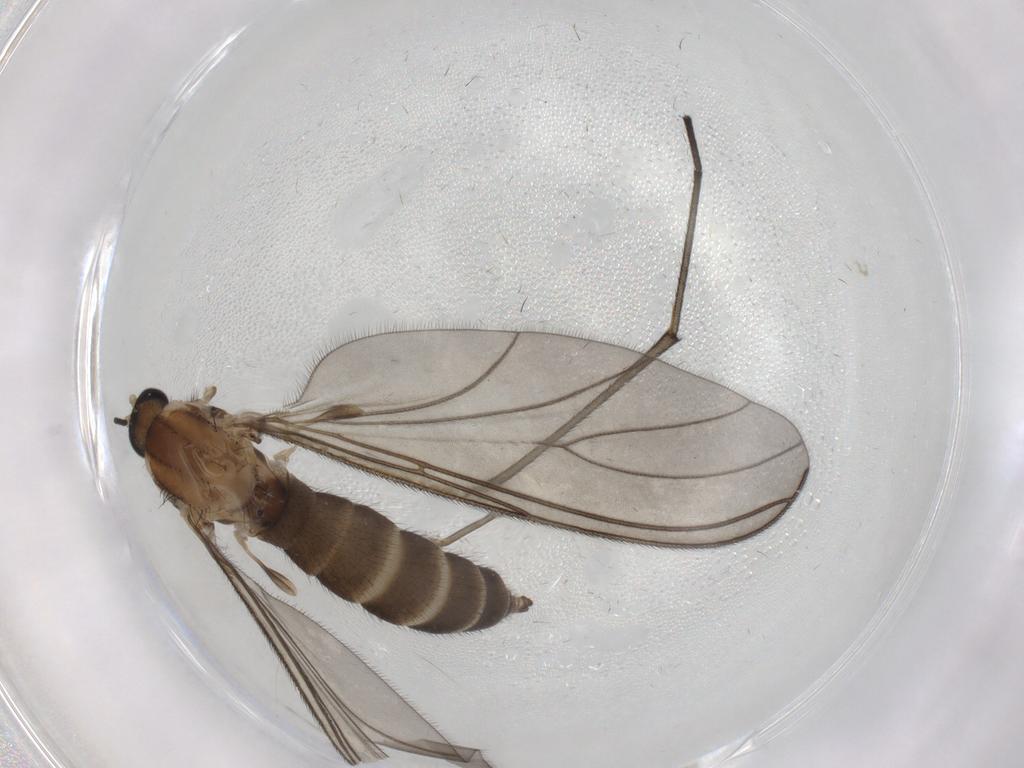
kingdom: Animalia
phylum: Arthropoda
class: Insecta
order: Diptera
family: Sciaridae
